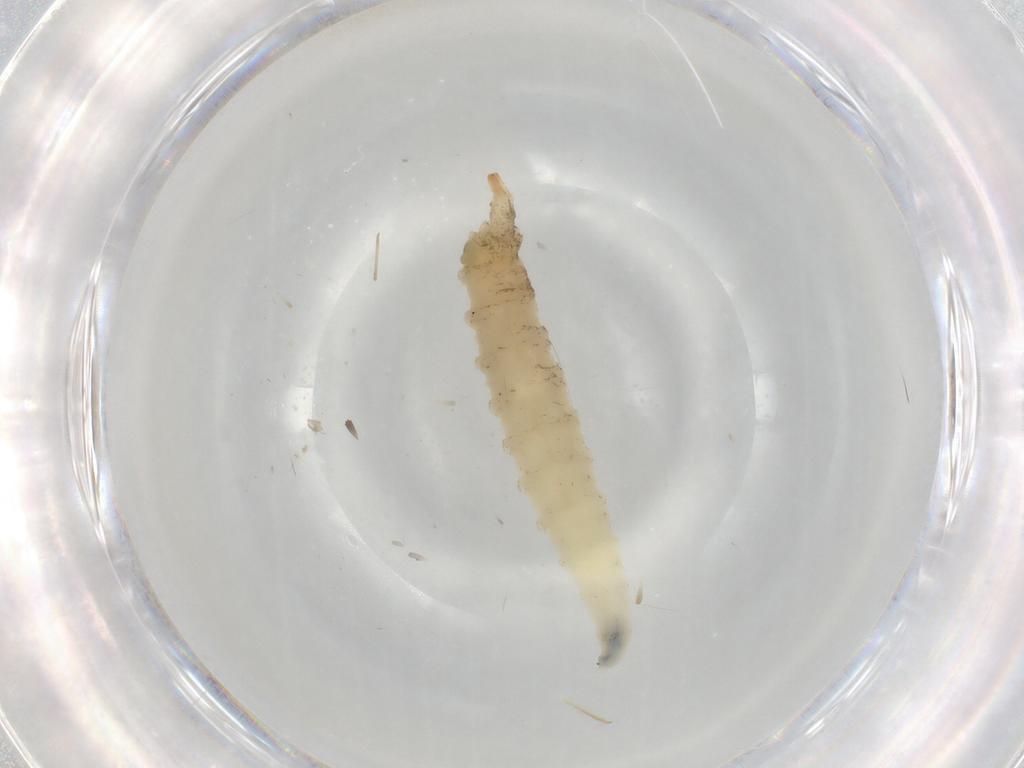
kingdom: Animalia
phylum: Arthropoda
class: Insecta
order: Diptera
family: Drosophilidae
